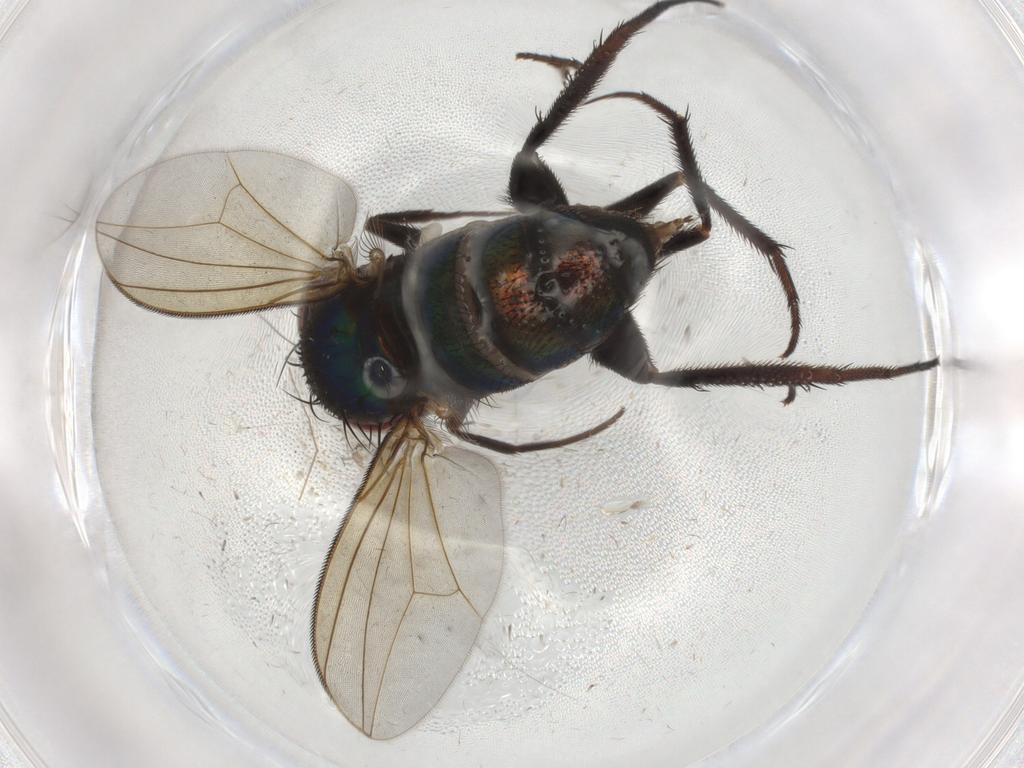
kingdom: Animalia
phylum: Arthropoda
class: Insecta
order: Diptera
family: Dolichopodidae
